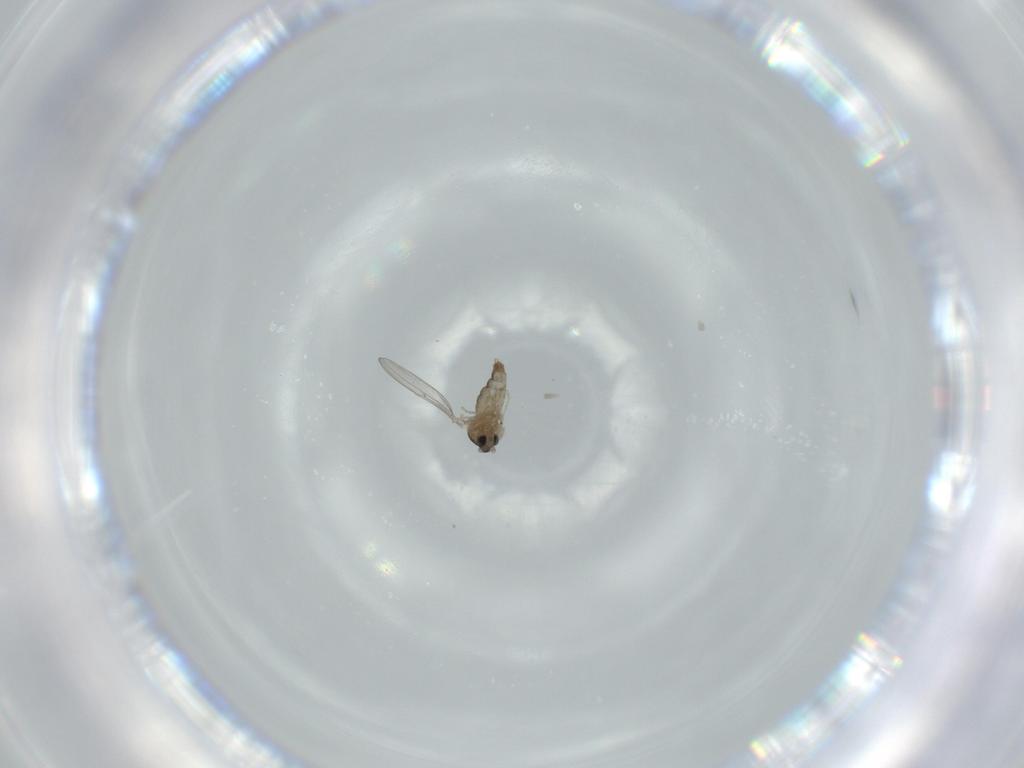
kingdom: Animalia
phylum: Arthropoda
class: Insecta
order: Diptera
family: Cecidomyiidae
